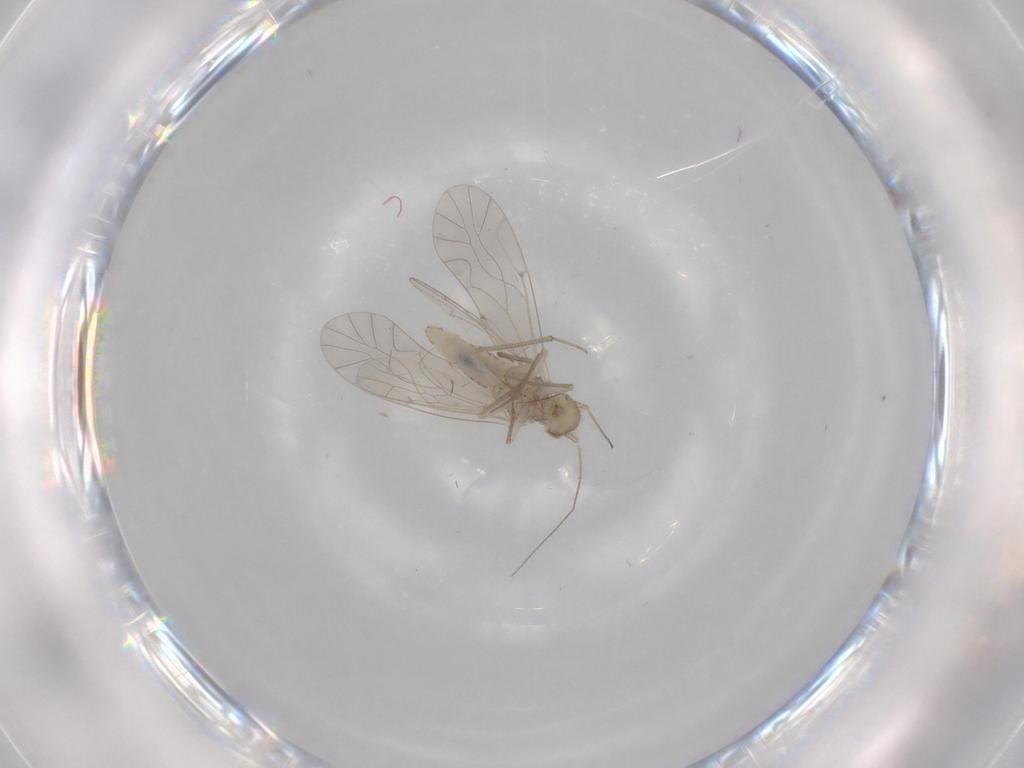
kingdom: Animalia
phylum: Arthropoda
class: Insecta
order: Psocodea
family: Lachesillidae
